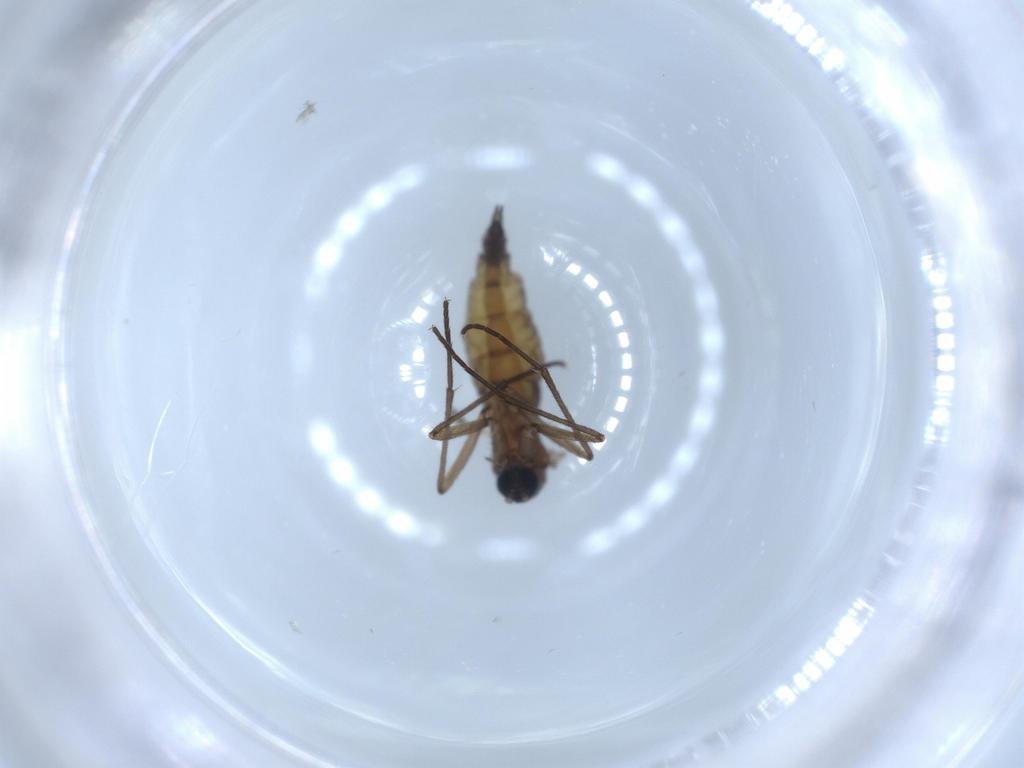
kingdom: Animalia
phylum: Arthropoda
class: Insecta
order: Diptera
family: Sciaridae
